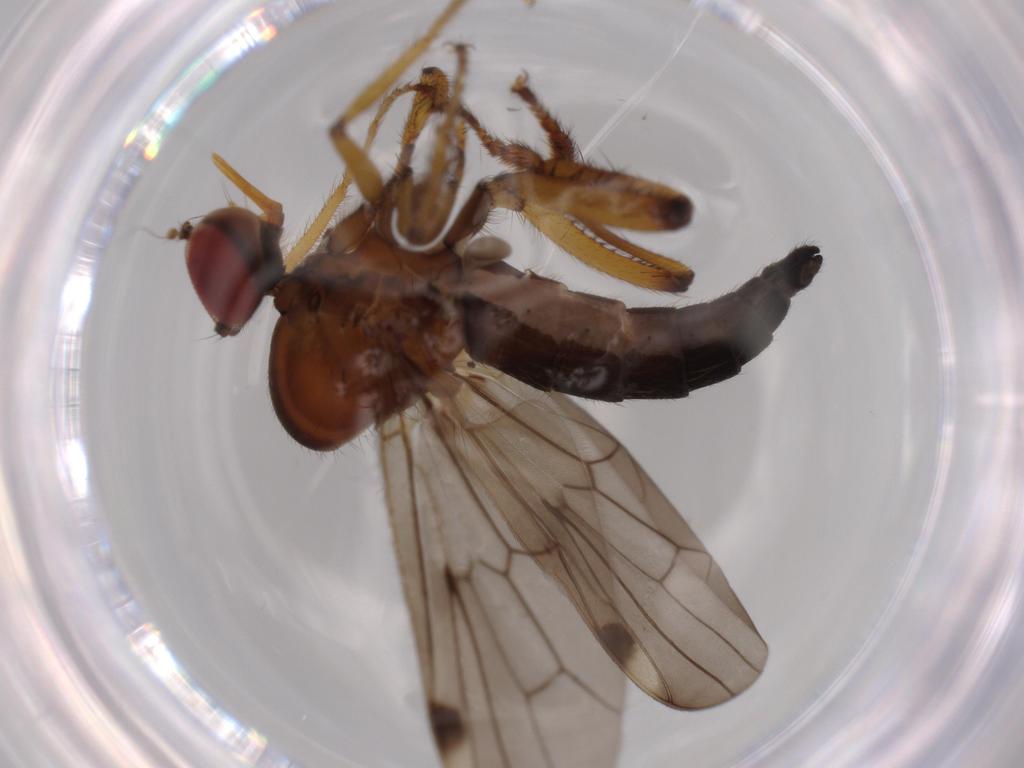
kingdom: Animalia
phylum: Arthropoda
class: Insecta
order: Diptera
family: Hybotidae
